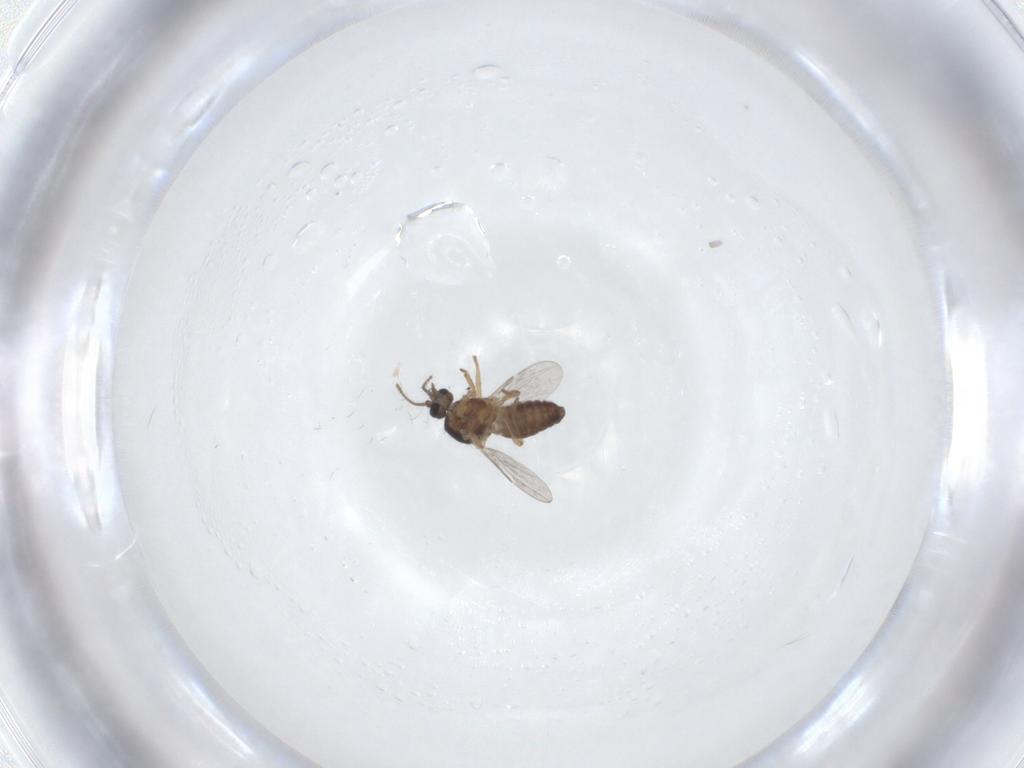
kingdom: Animalia
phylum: Arthropoda
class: Insecta
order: Diptera
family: Ceratopogonidae
